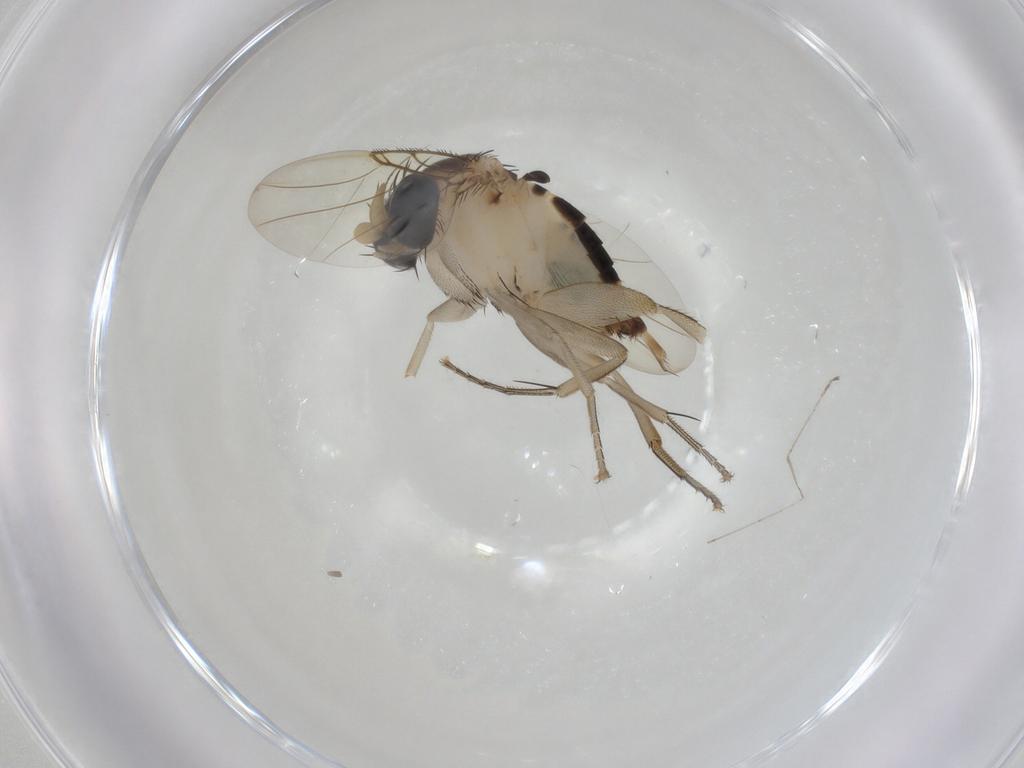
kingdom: Animalia
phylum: Arthropoda
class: Insecta
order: Diptera
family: Phoridae
